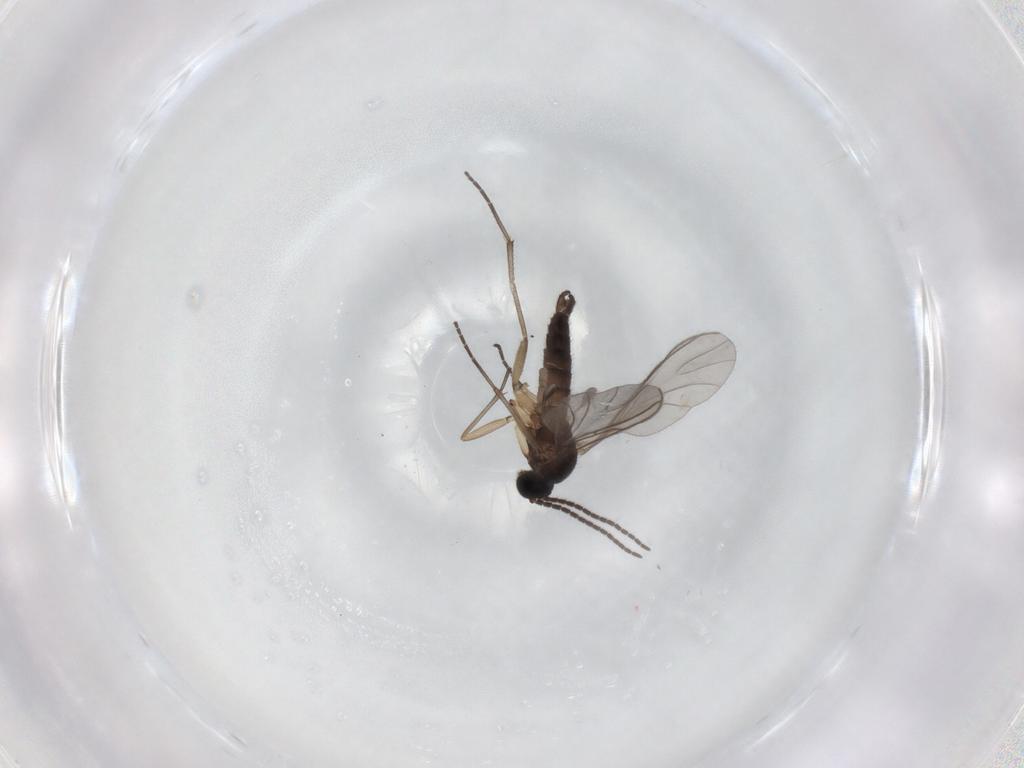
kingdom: Animalia
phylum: Arthropoda
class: Insecta
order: Diptera
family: Sciaridae
